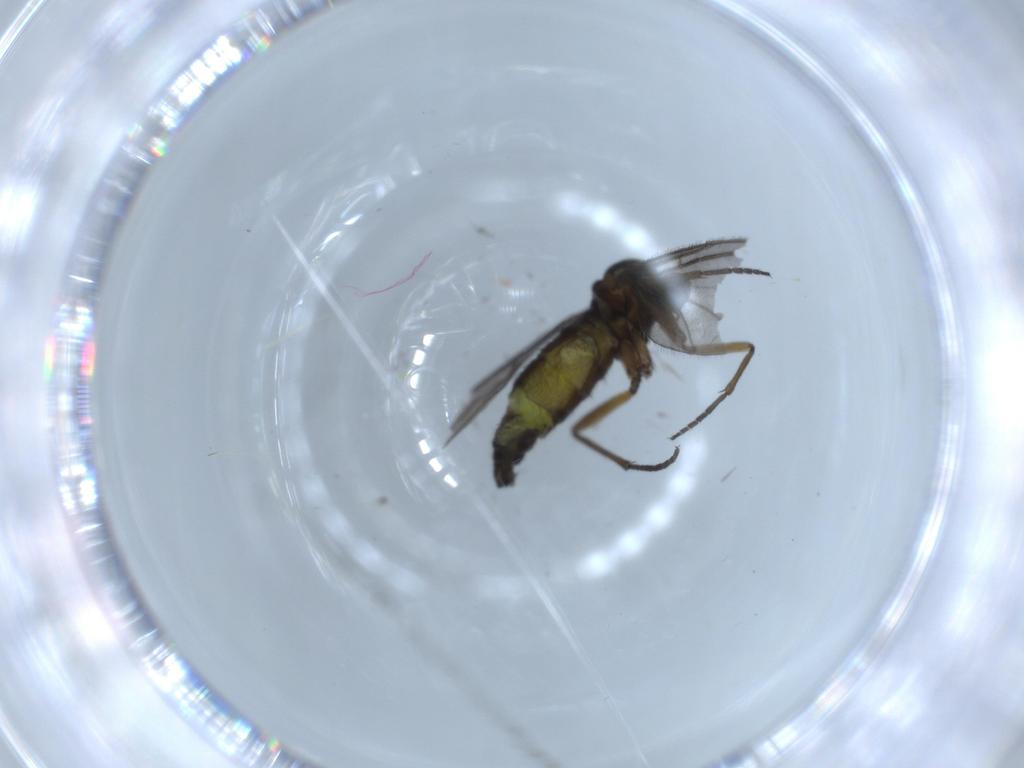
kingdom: Animalia
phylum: Arthropoda
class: Insecta
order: Diptera
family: Sciaridae
